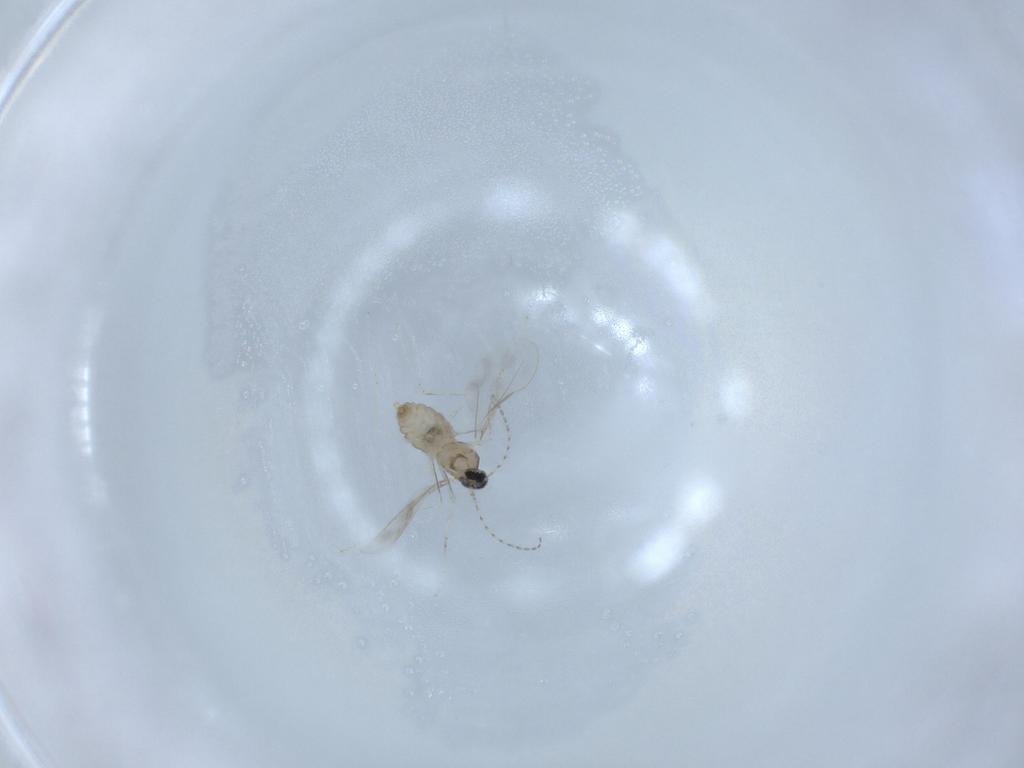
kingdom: Animalia
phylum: Arthropoda
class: Insecta
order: Diptera
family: Cecidomyiidae
